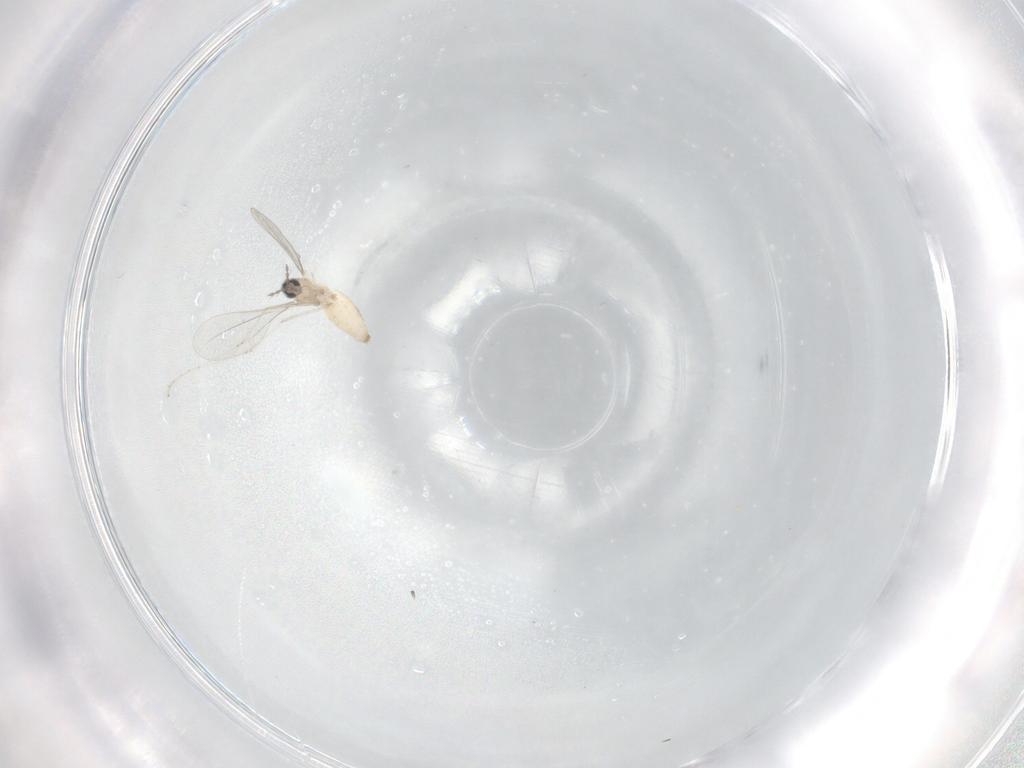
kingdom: Animalia
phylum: Arthropoda
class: Insecta
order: Diptera
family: Cecidomyiidae
